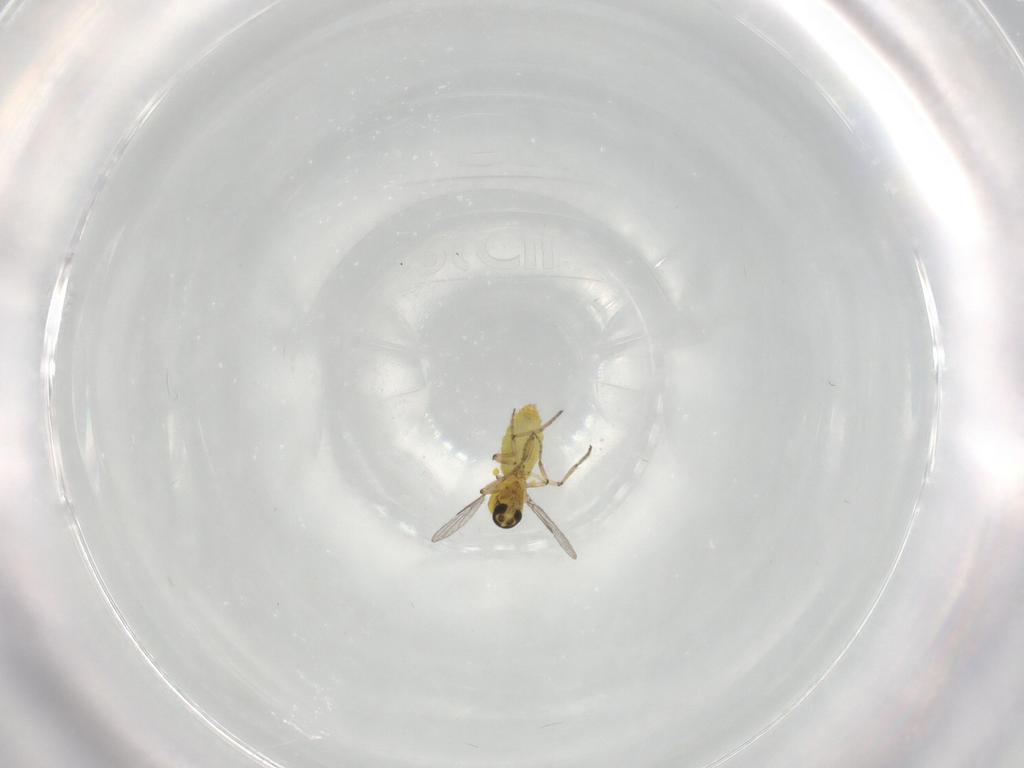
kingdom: Animalia
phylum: Arthropoda
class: Insecta
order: Diptera
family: Ceratopogonidae
